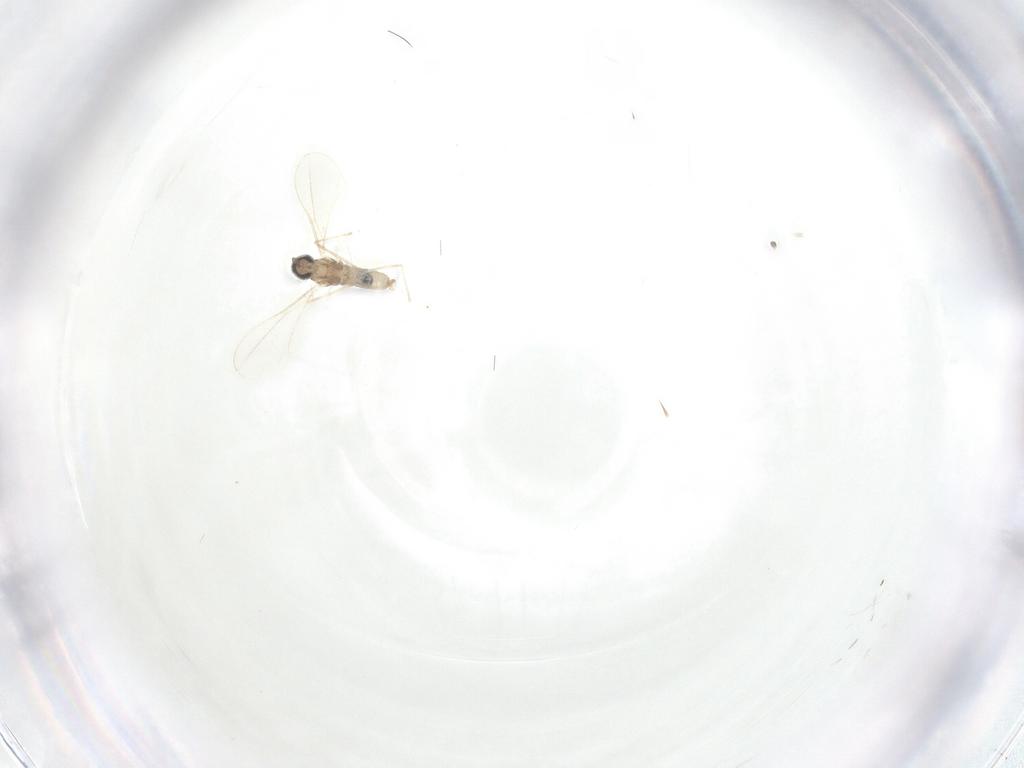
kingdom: Animalia
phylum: Arthropoda
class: Insecta
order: Diptera
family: Cecidomyiidae
